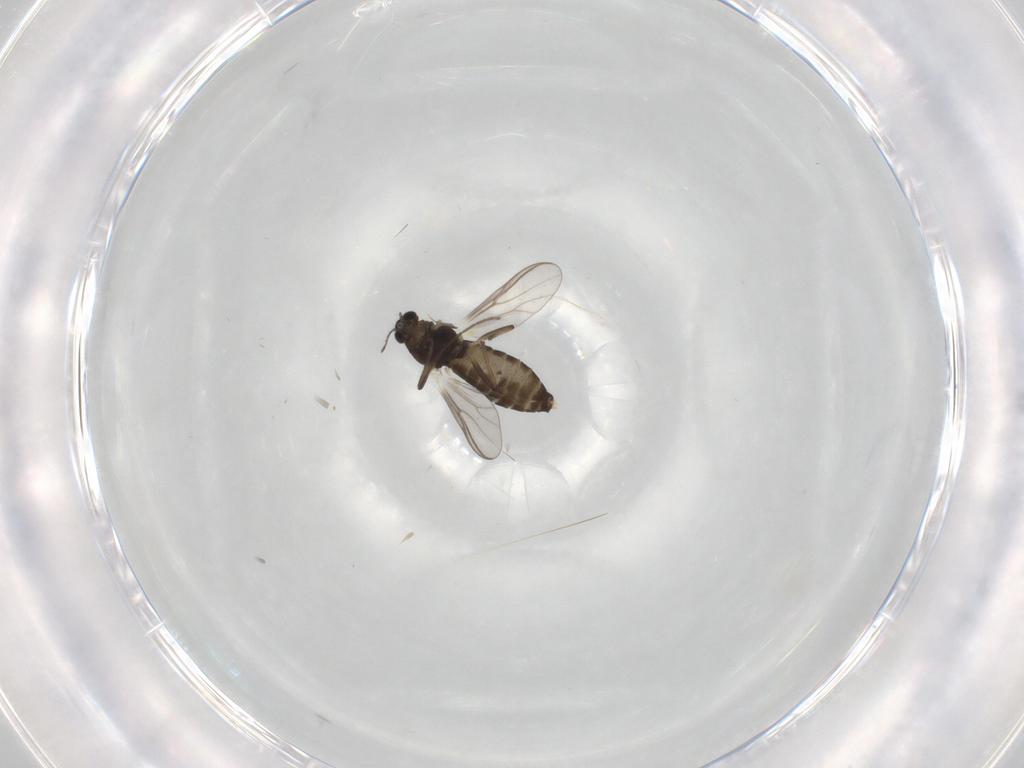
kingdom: Animalia
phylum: Arthropoda
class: Insecta
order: Diptera
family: Chironomidae
